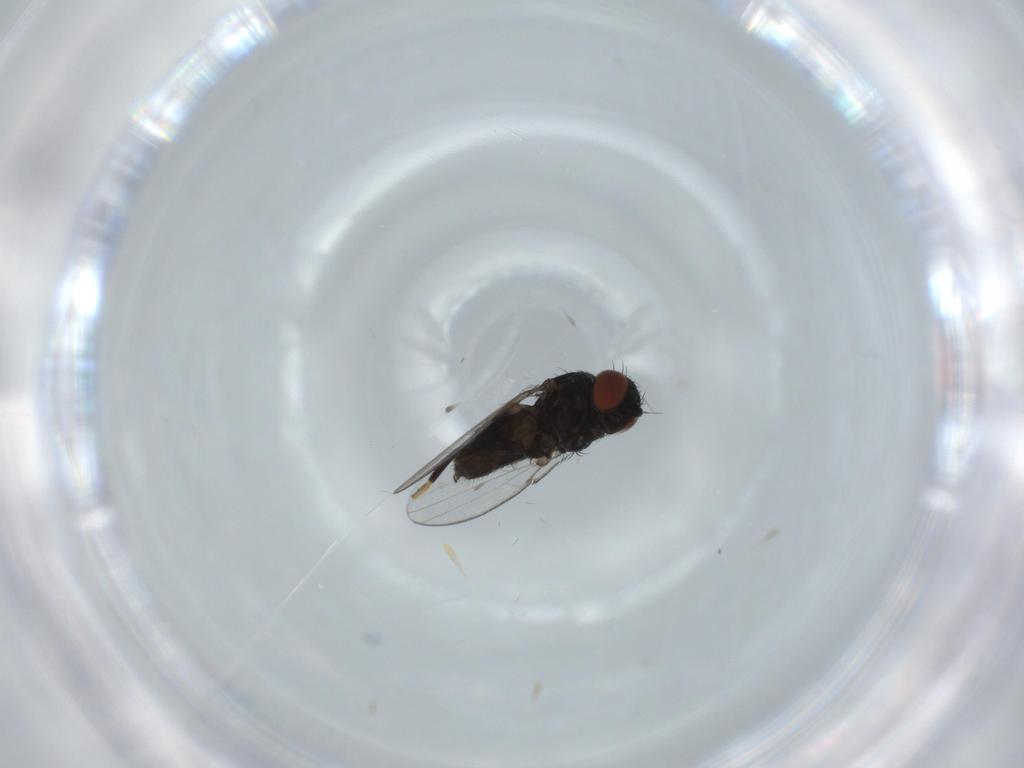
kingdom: Animalia
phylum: Arthropoda
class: Insecta
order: Diptera
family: Milichiidae
